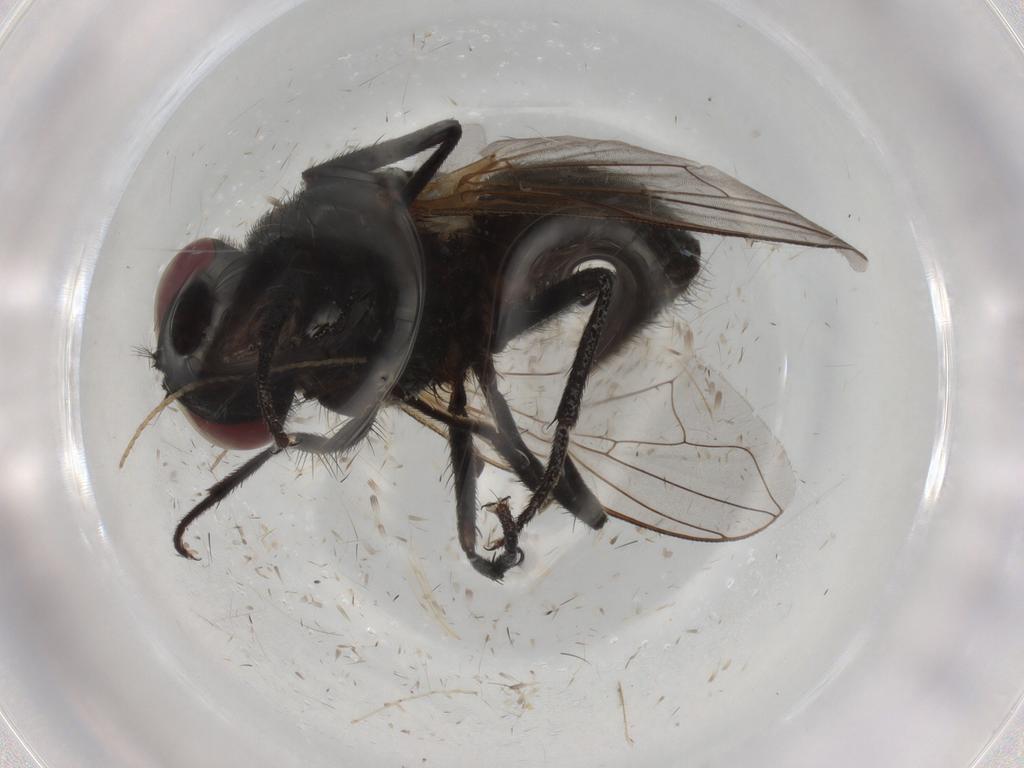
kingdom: Animalia
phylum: Arthropoda
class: Insecta
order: Diptera
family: Muscidae
